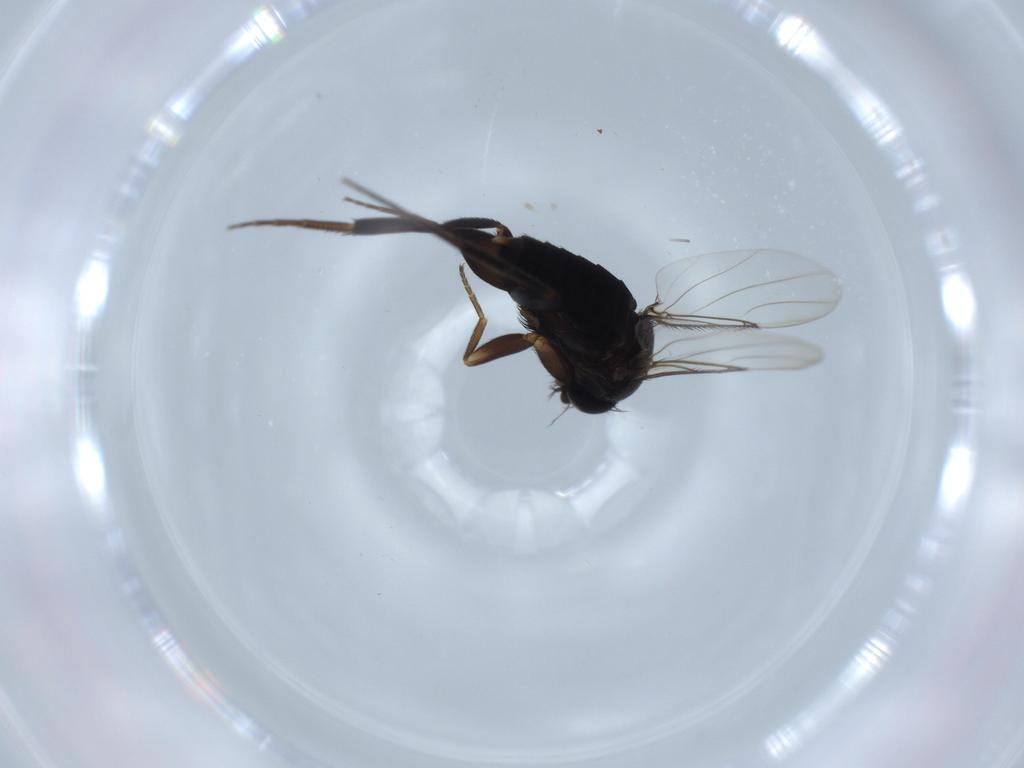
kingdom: Animalia
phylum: Arthropoda
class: Insecta
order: Diptera
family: Phoridae
